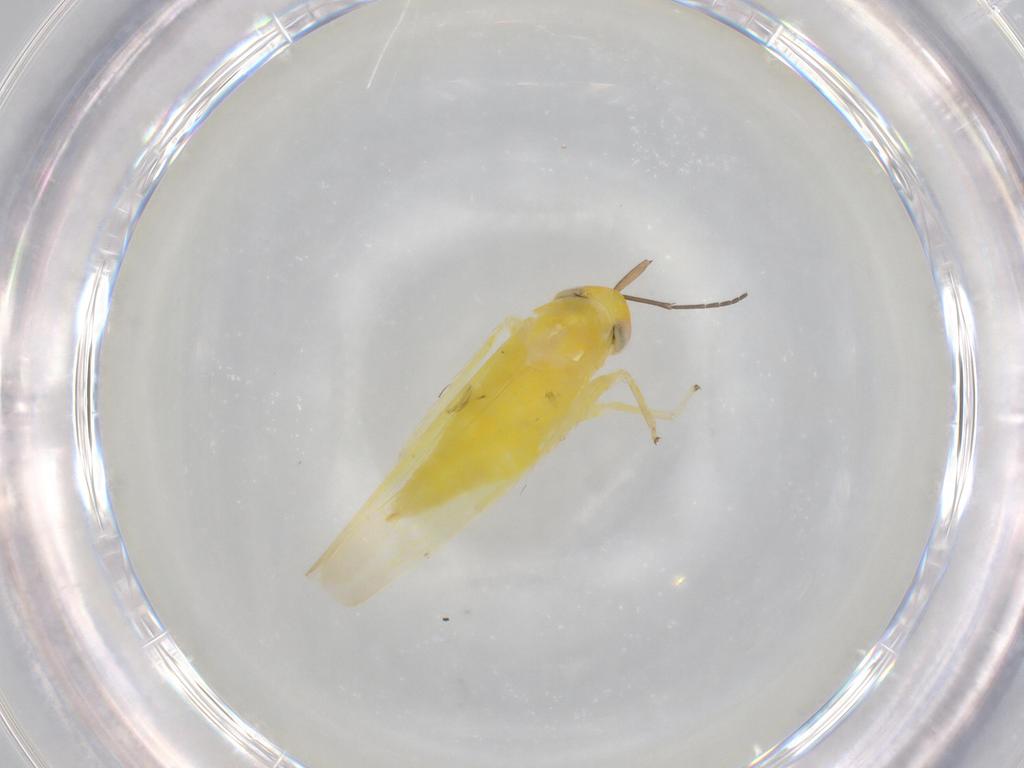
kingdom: Animalia
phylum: Arthropoda
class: Insecta
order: Hemiptera
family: Cicadellidae
